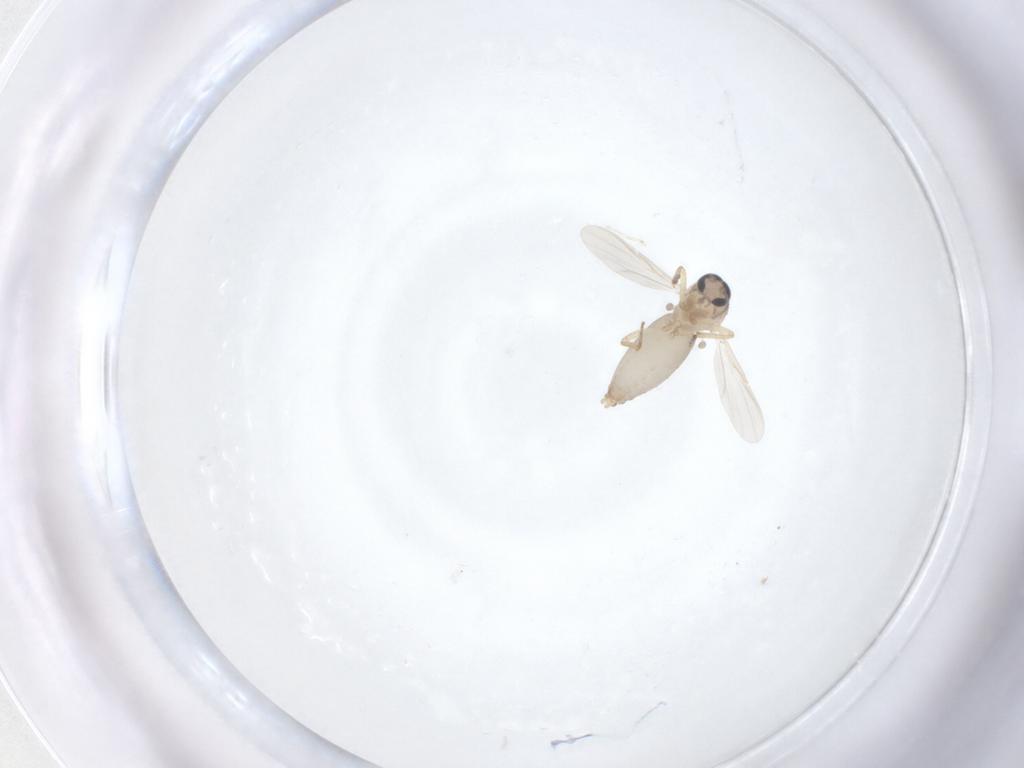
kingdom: Animalia
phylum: Arthropoda
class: Insecta
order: Diptera
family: Ceratopogonidae
